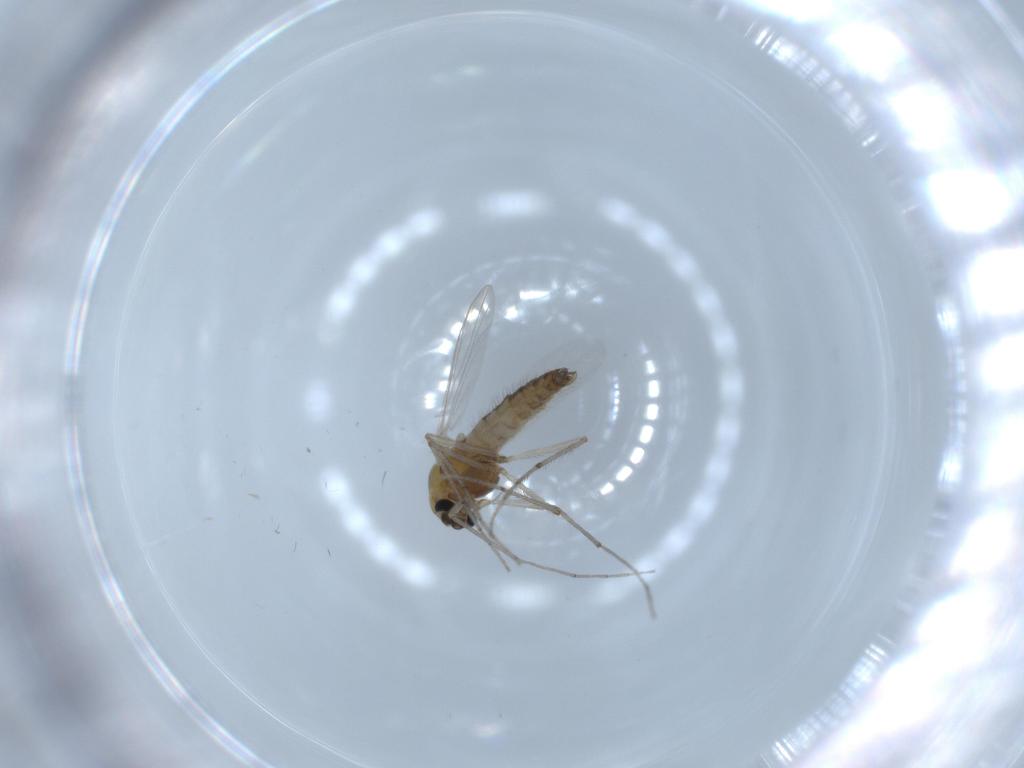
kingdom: Animalia
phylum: Arthropoda
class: Insecta
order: Diptera
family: Chironomidae
